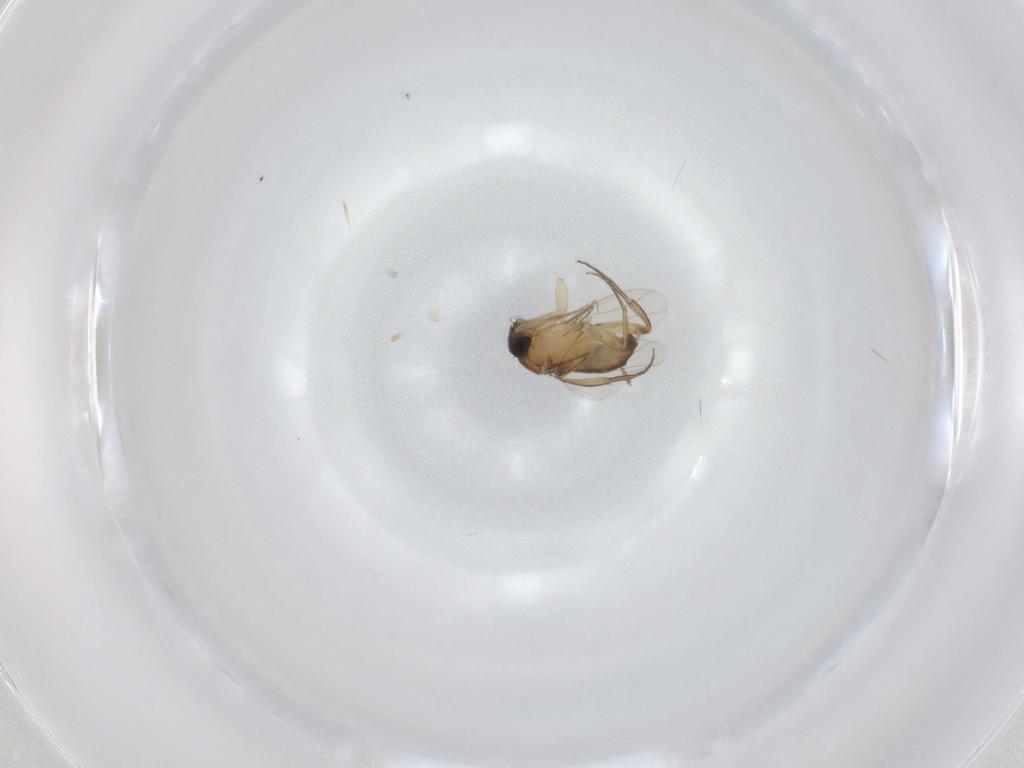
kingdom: Animalia
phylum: Arthropoda
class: Insecta
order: Diptera
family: Phoridae
